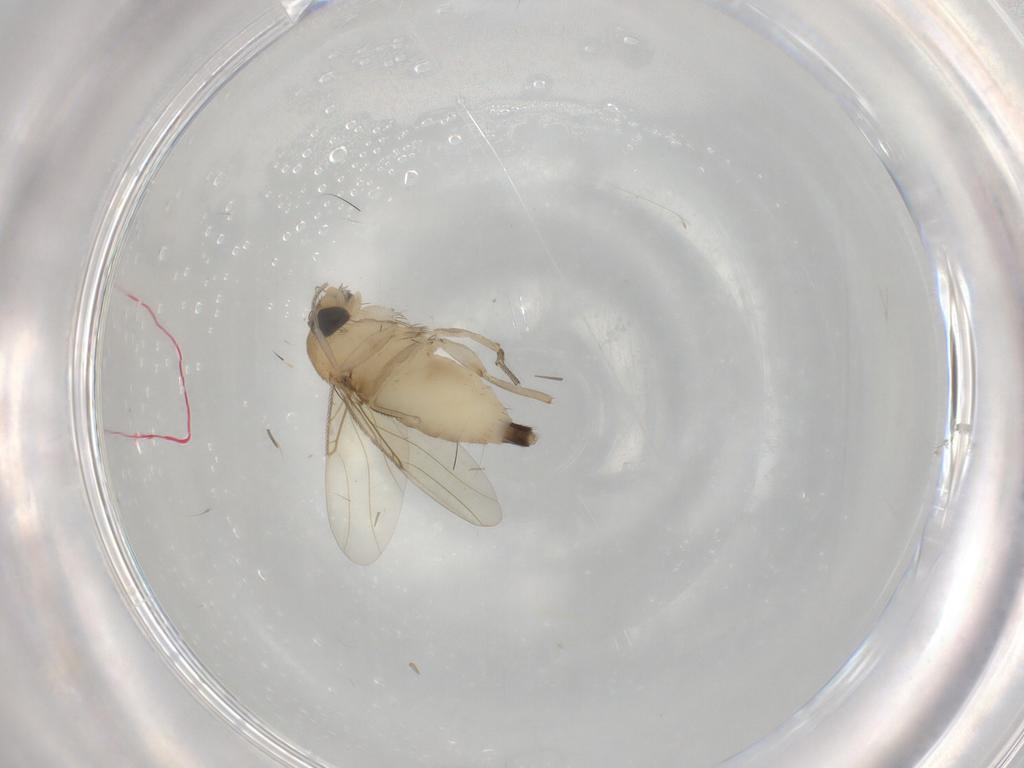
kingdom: Animalia
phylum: Arthropoda
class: Insecta
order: Diptera
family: Phoridae
